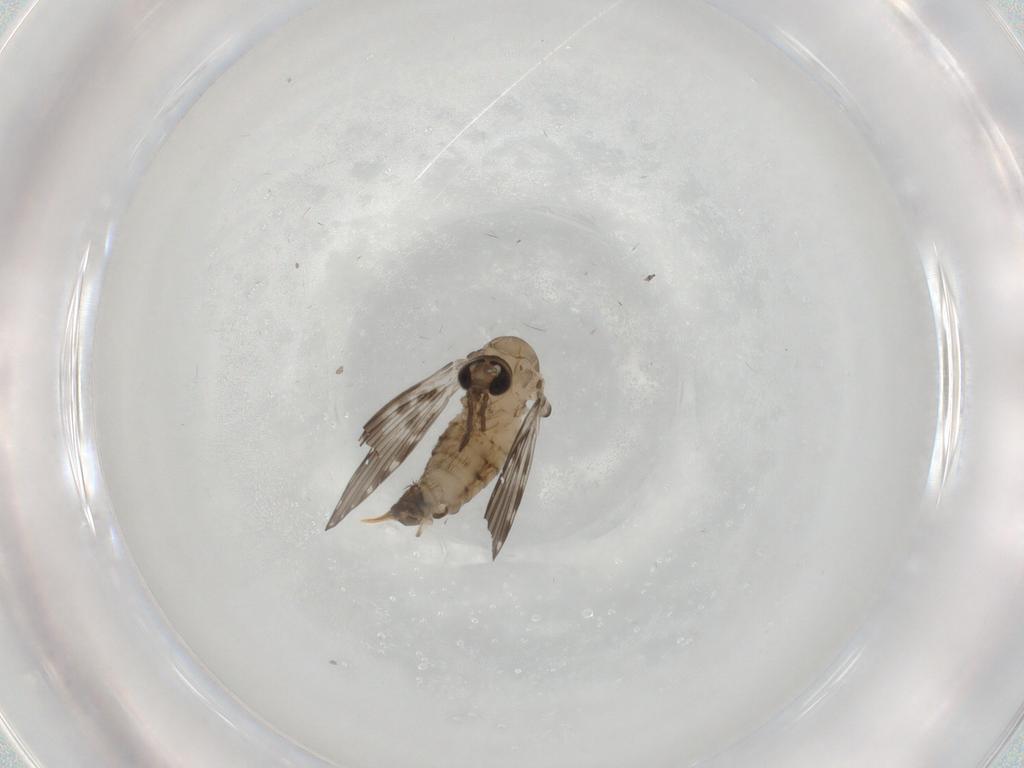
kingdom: Animalia
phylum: Arthropoda
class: Insecta
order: Diptera
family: Psychodidae
